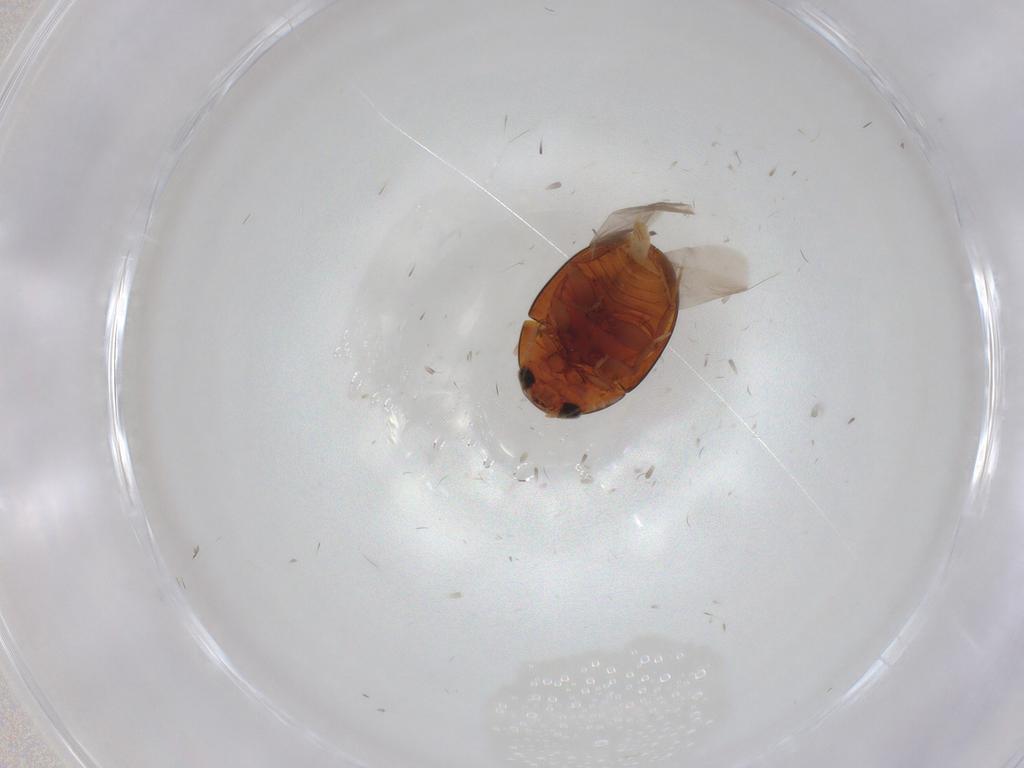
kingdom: Animalia
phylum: Arthropoda
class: Insecta
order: Coleoptera
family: Phalacridae
